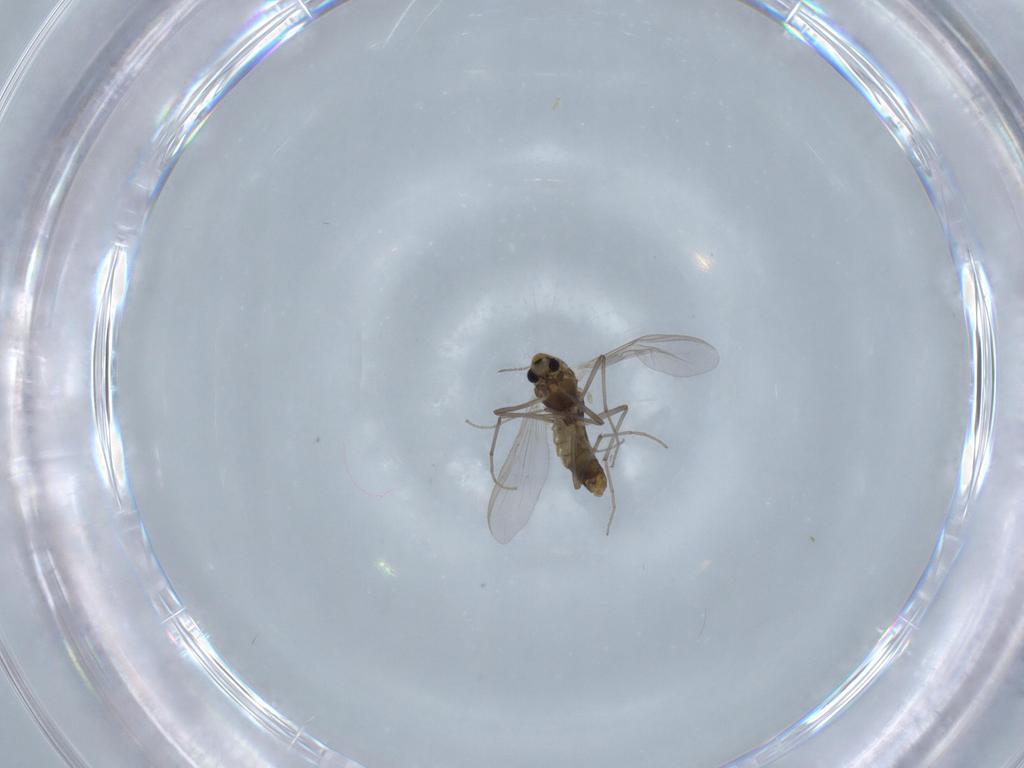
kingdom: Animalia
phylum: Arthropoda
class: Insecta
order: Diptera
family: Chironomidae
